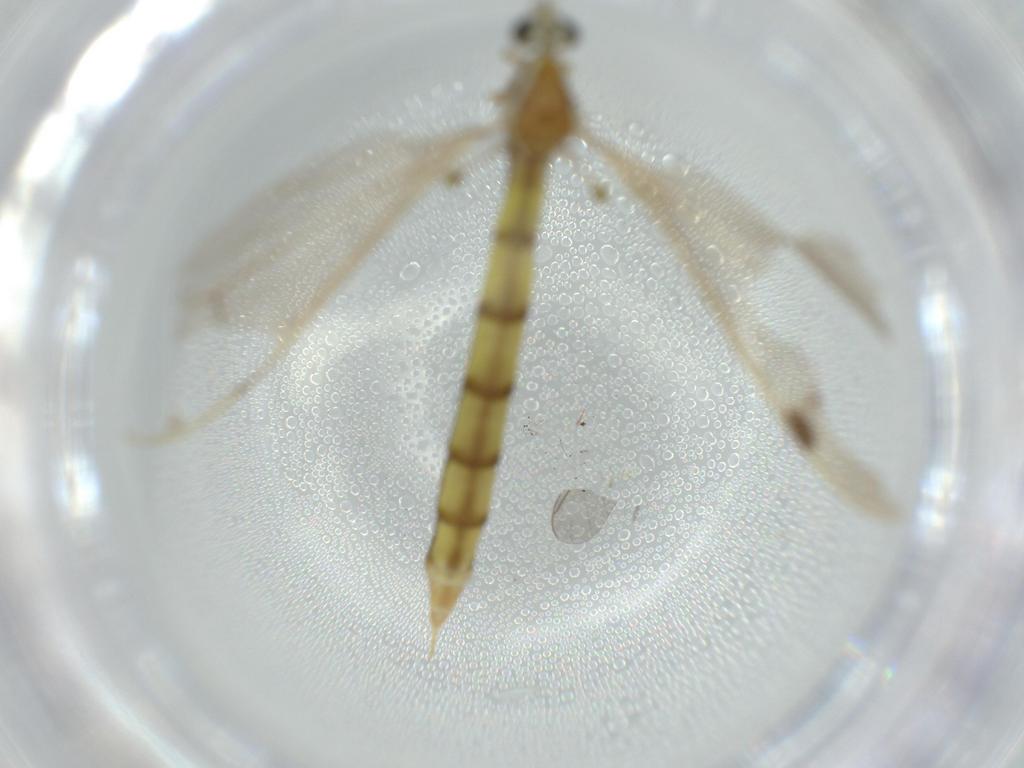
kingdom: Animalia
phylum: Arthropoda
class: Insecta
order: Diptera
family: Psychodidae
